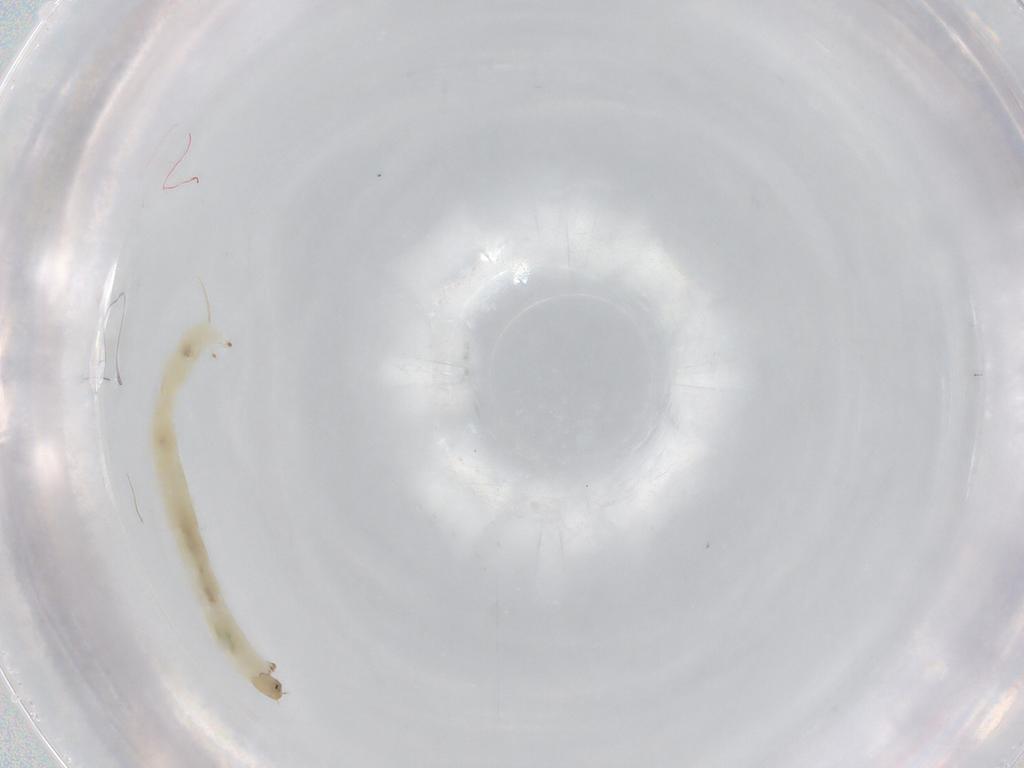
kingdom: Animalia
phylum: Arthropoda
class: Insecta
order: Diptera
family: Chironomidae
